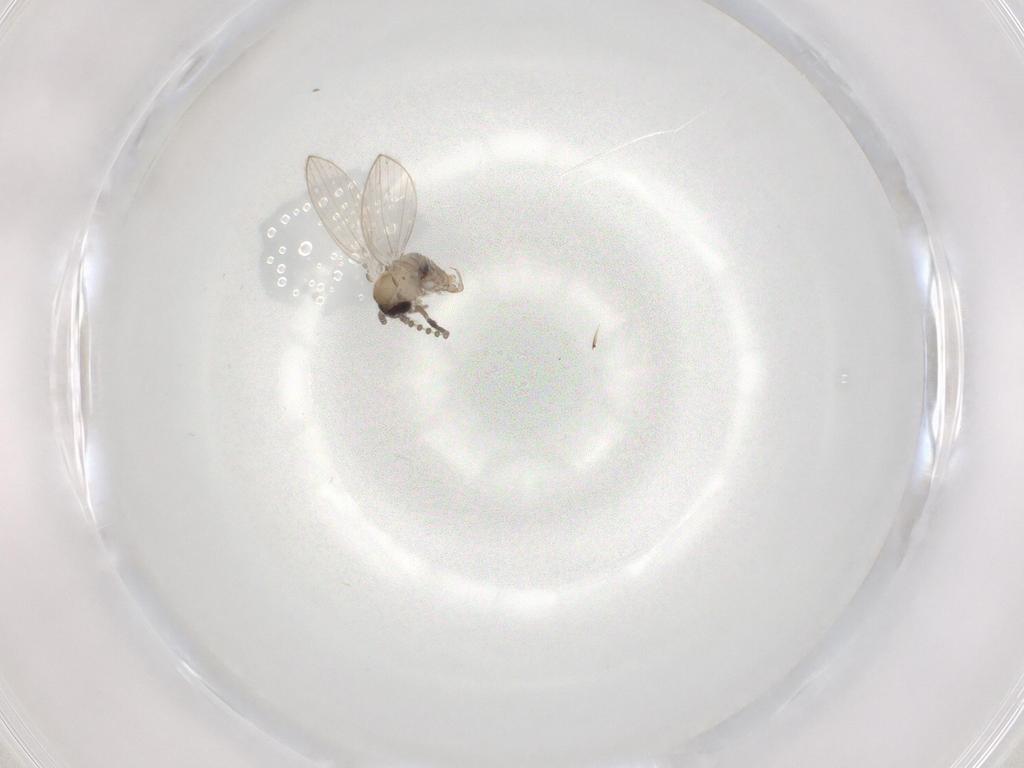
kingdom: Animalia
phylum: Arthropoda
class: Insecta
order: Diptera
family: Psychodidae
